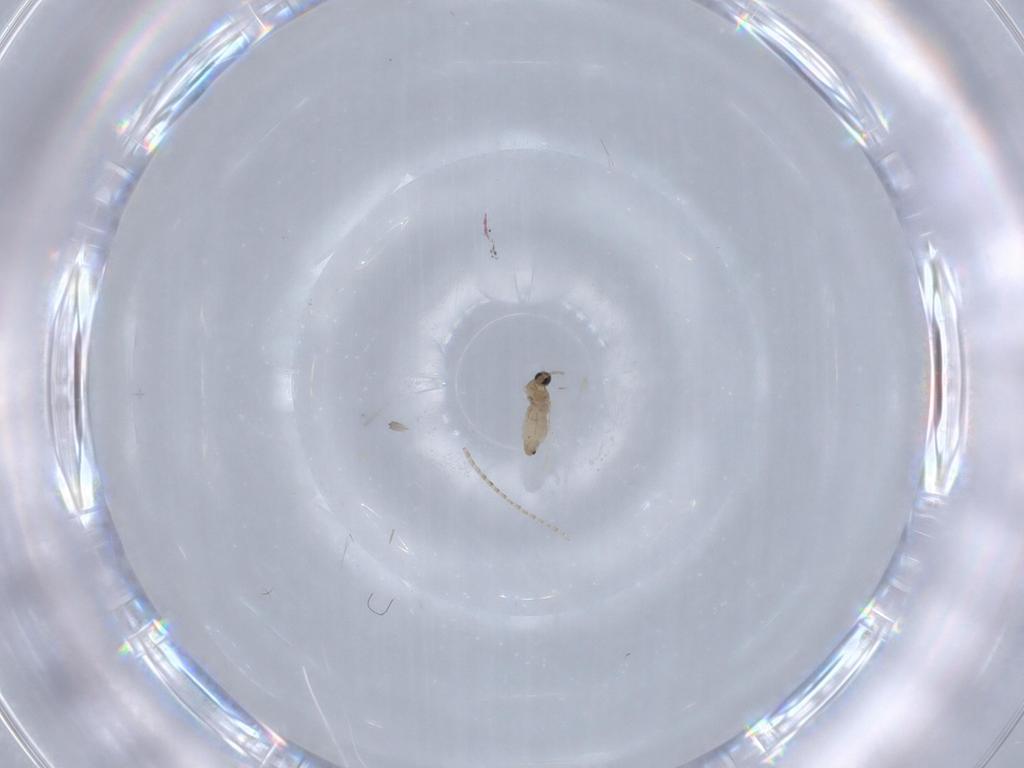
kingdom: Animalia
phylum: Arthropoda
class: Insecta
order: Diptera
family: Cecidomyiidae
